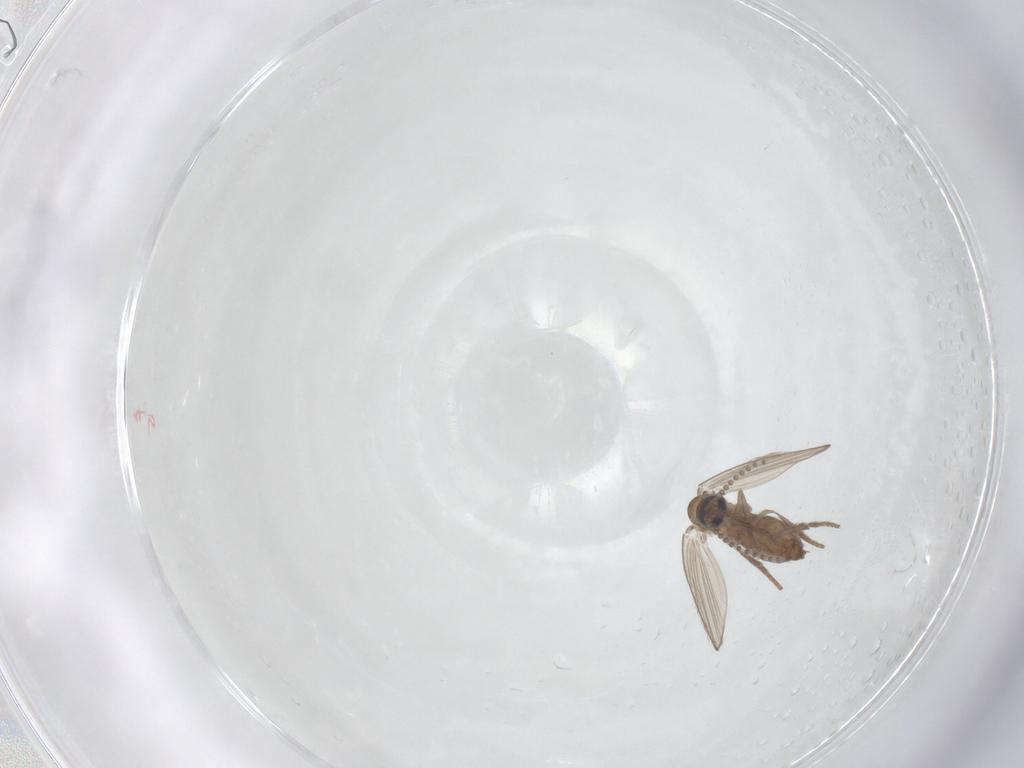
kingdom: Animalia
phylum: Arthropoda
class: Insecta
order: Diptera
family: Psychodidae
